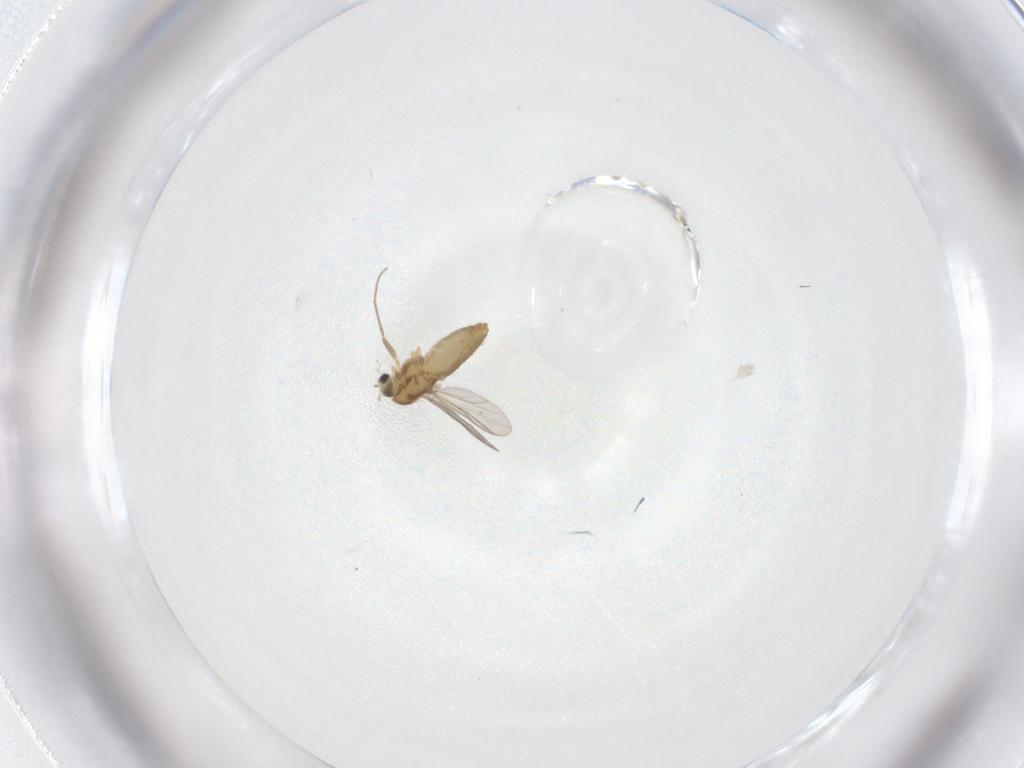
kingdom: Animalia
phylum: Arthropoda
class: Insecta
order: Diptera
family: Chironomidae
